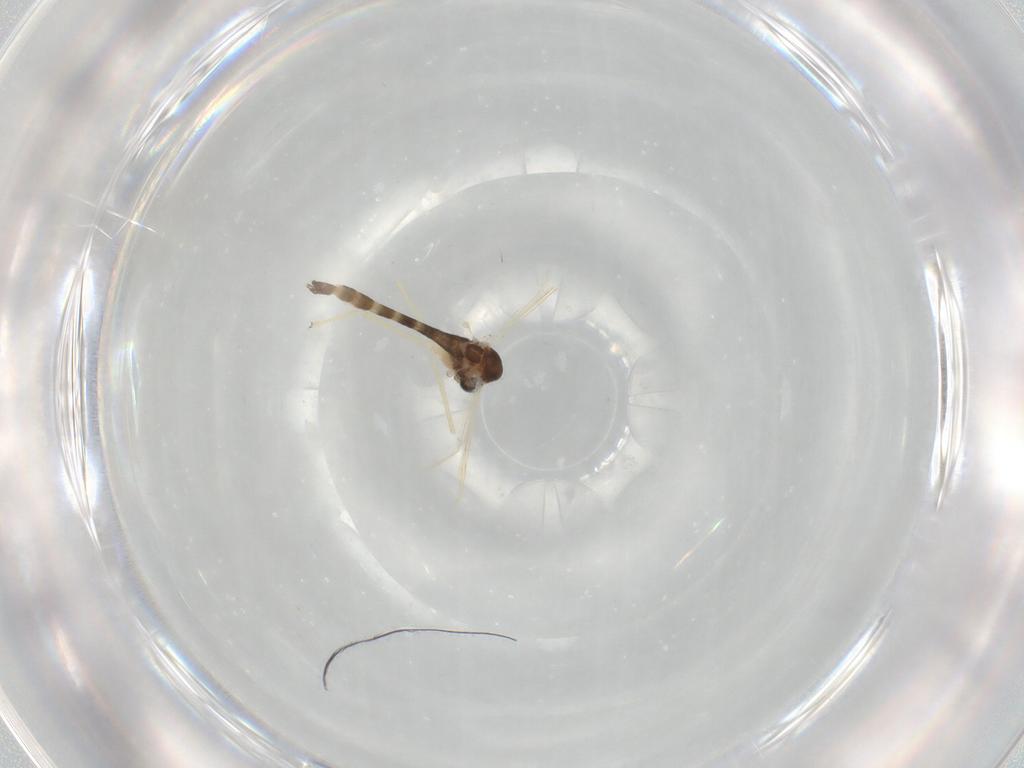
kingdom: Animalia
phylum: Arthropoda
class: Insecta
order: Diptera
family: Chironomidae
